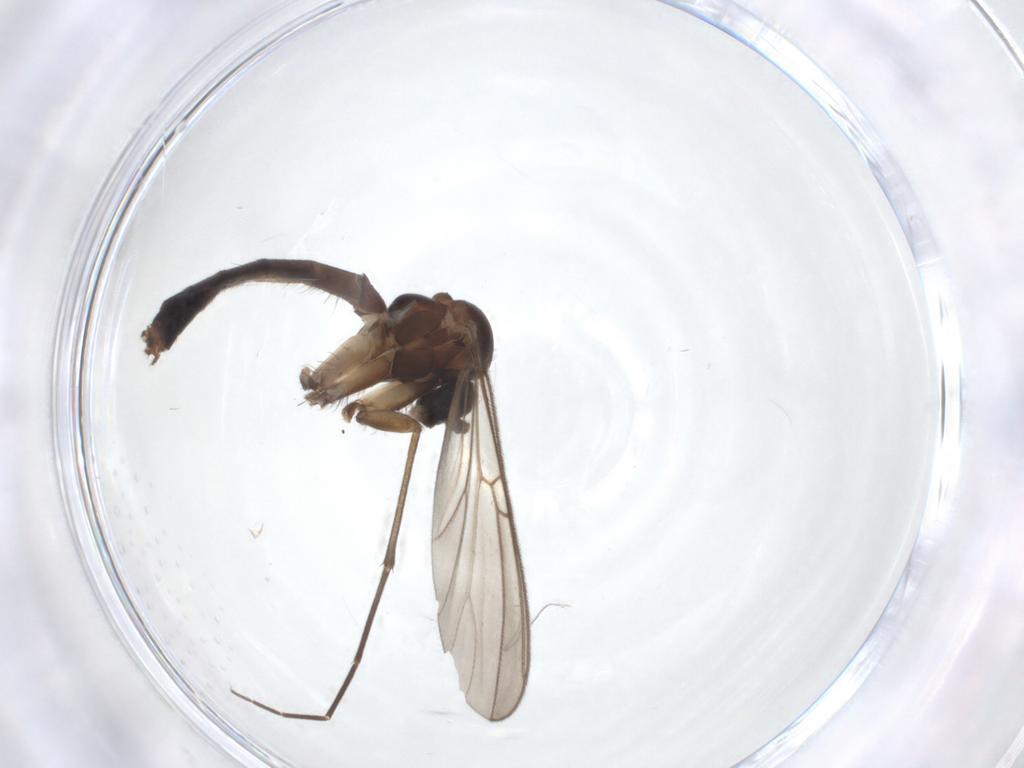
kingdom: Animalia
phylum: Arthropoda
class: Insecta
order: Diptera
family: Mycetophilidae
